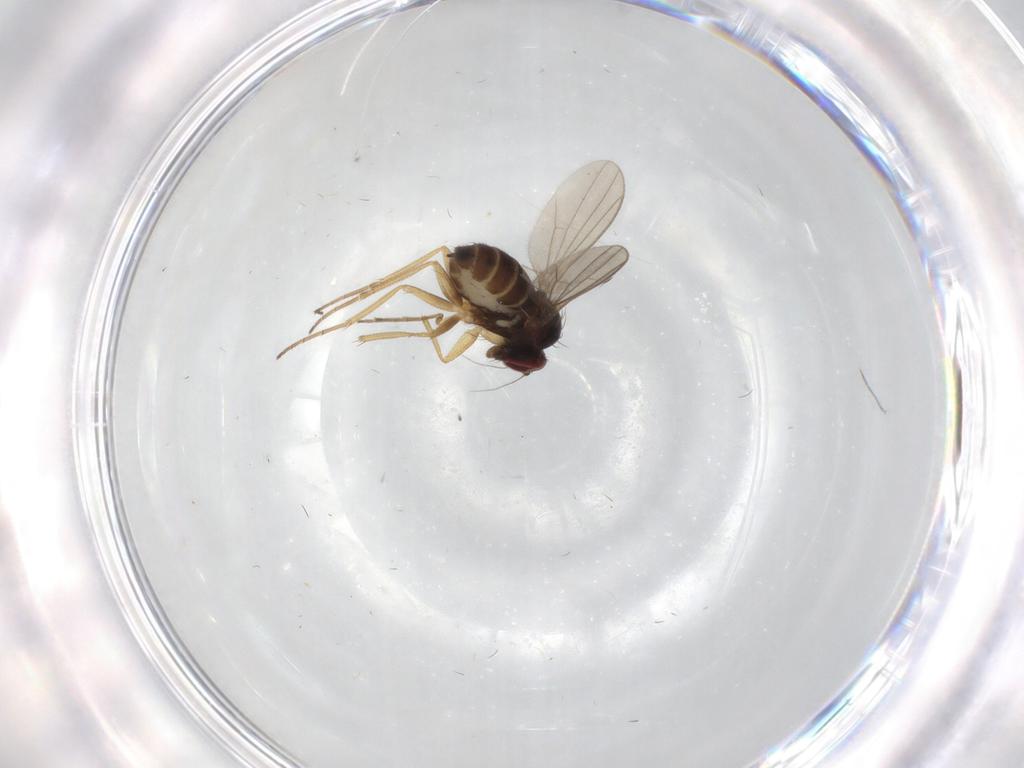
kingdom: Animalia
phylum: Arthropoda
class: Insecta
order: Diptera
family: Dolichopodidae
